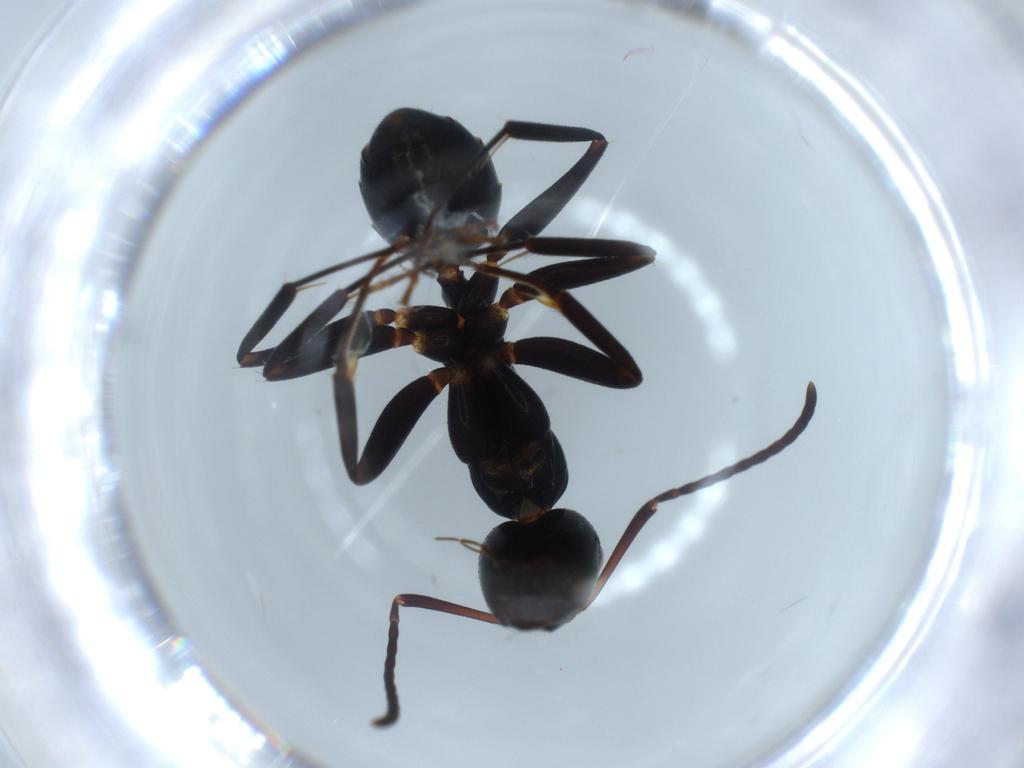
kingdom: Animalia
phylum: Arthropoda
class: Insecta
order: Hymenoptera
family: Formicidae
